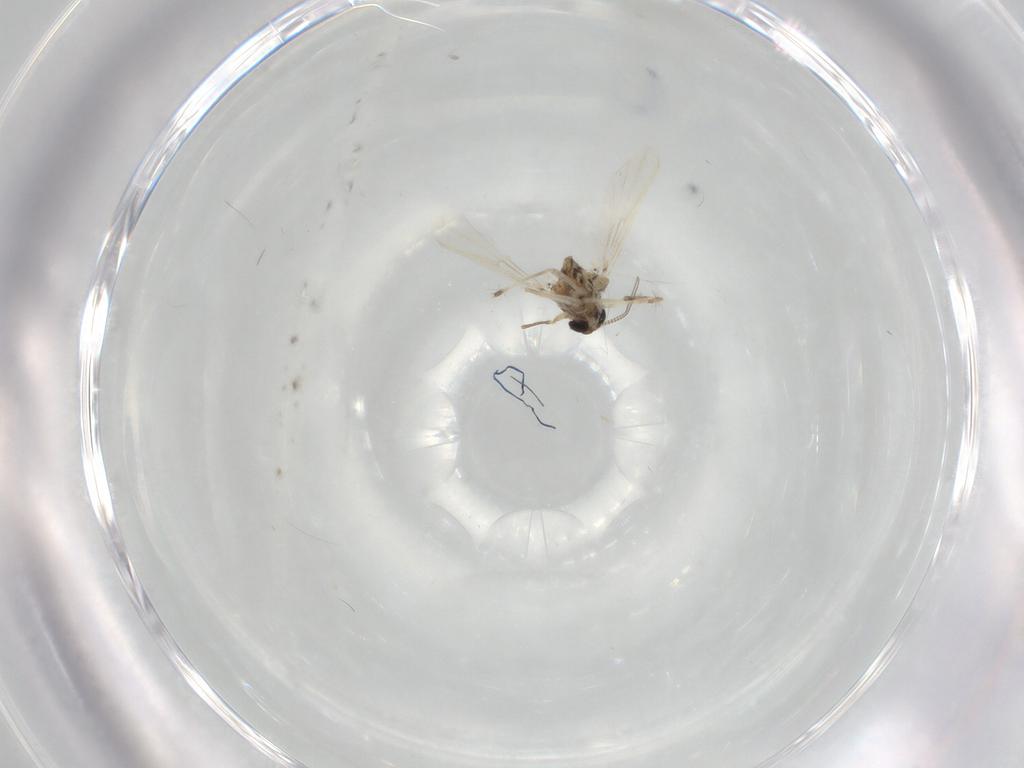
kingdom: Animalia
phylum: Arthropoda
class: Insecta
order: Diptera
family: Chironomidae
